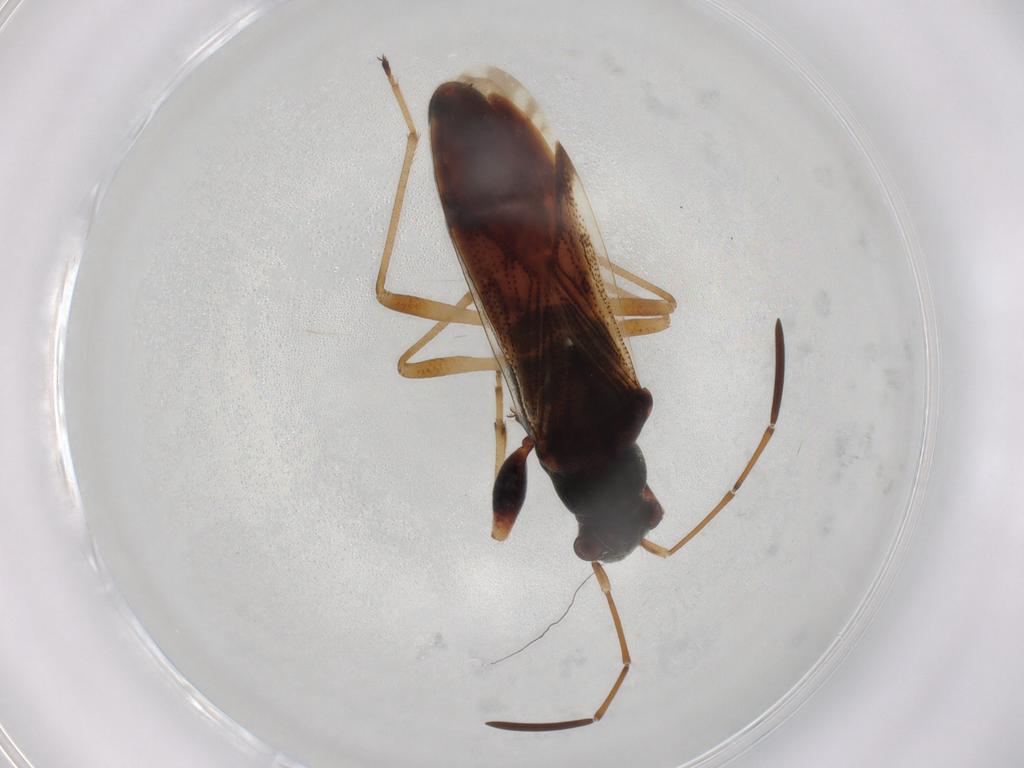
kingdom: Animalia
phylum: Arthropoda
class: Insecta
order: Hemiptera
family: Rhyparochromidae
